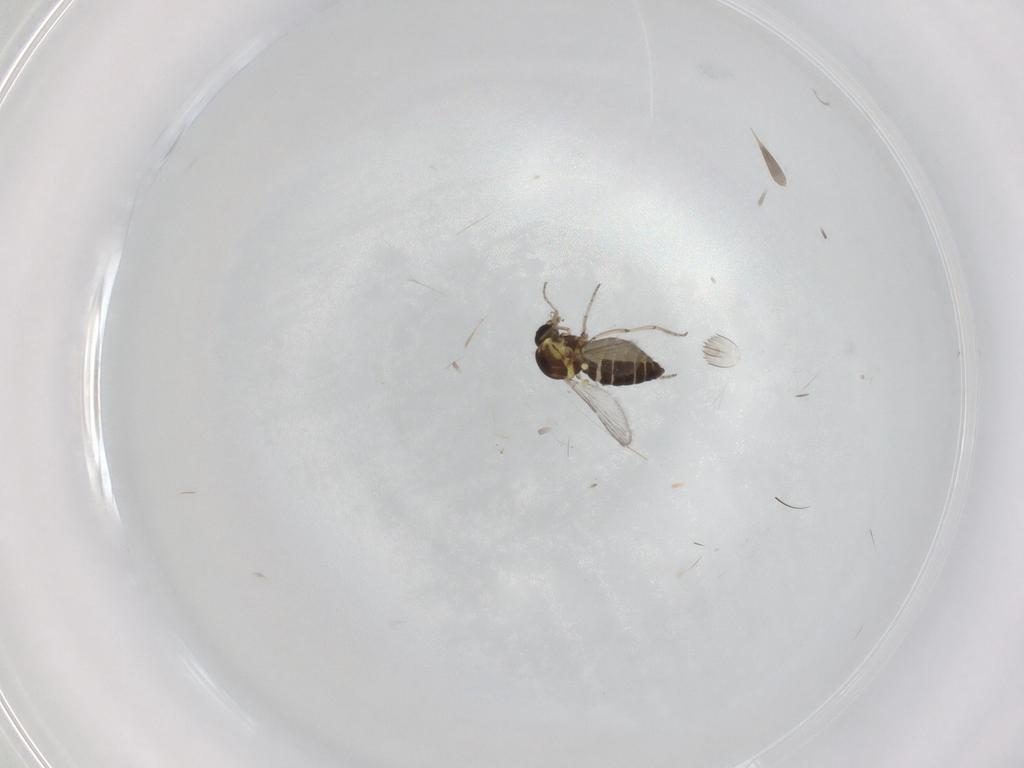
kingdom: Animalia
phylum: Arthropoda
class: Insecta
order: Diptera
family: Ceratopogonidae
